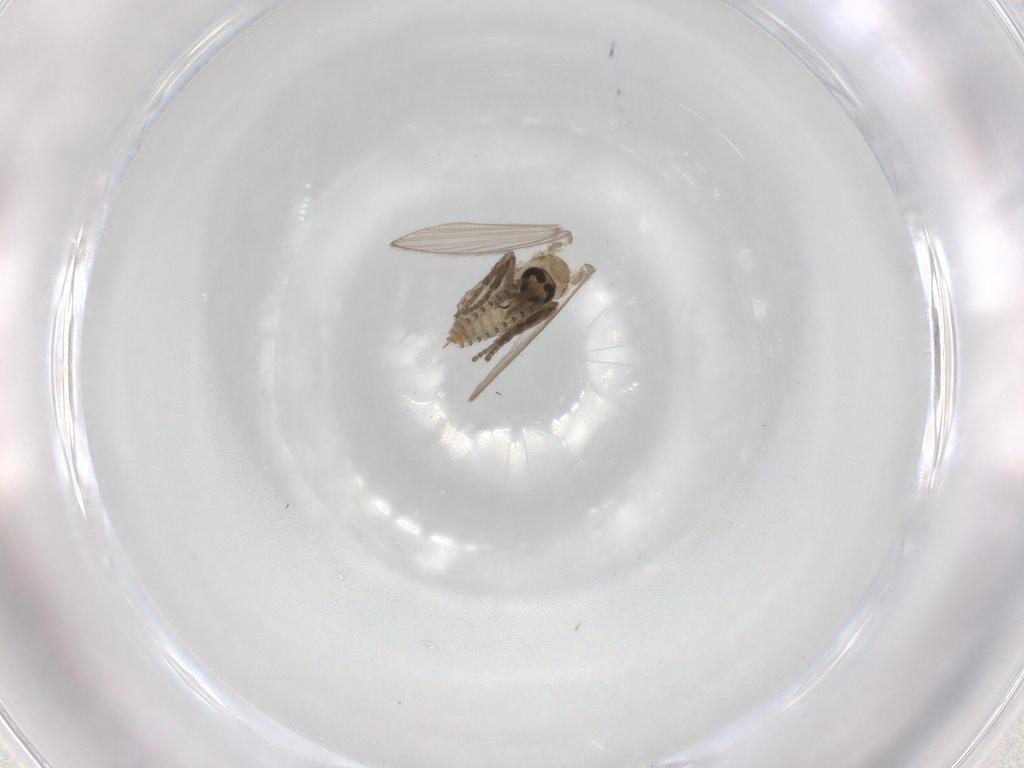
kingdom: Animalia
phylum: Arthropoda
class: Insecta
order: Diptera
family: Psychodidae
